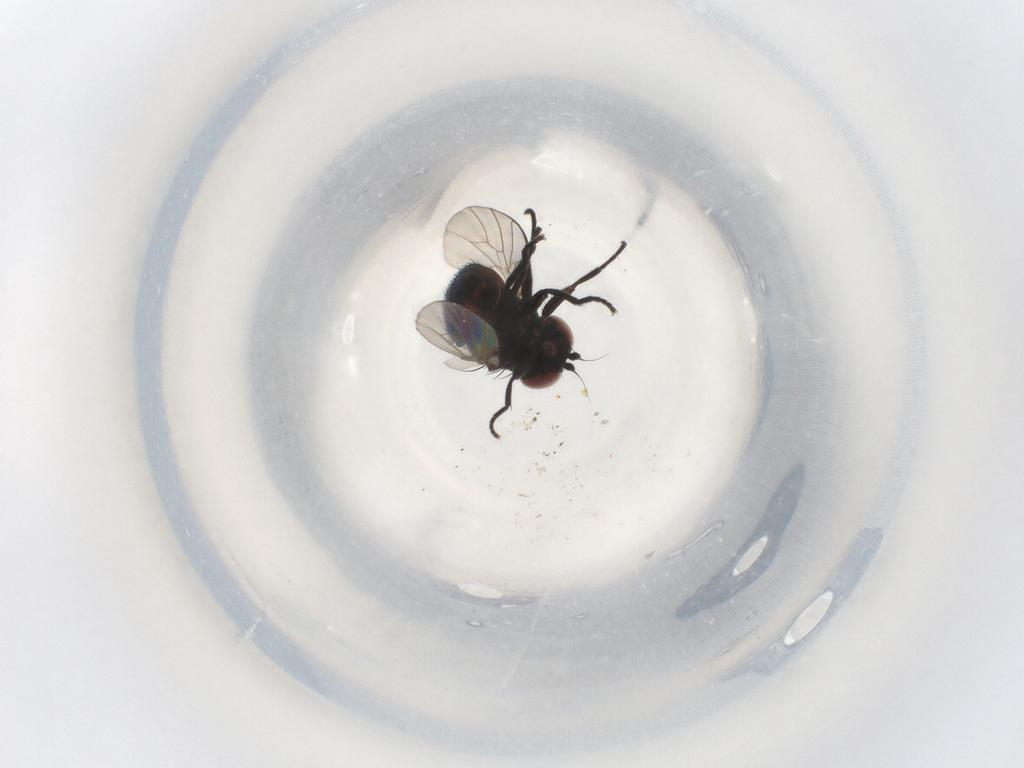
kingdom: Animalia
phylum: Arthropoda
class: Insecta
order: Diptera
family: Agromyzidae
